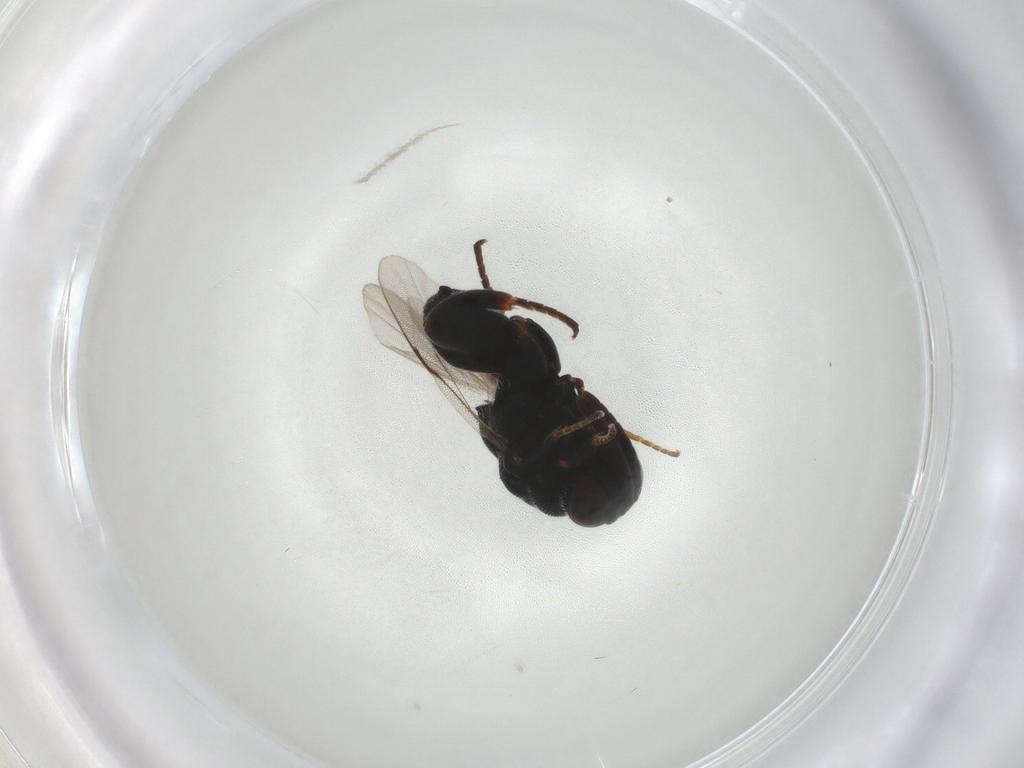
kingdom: Animalia
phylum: Arthropoda
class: Insecta
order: Hymenoptera
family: Chalcididae
